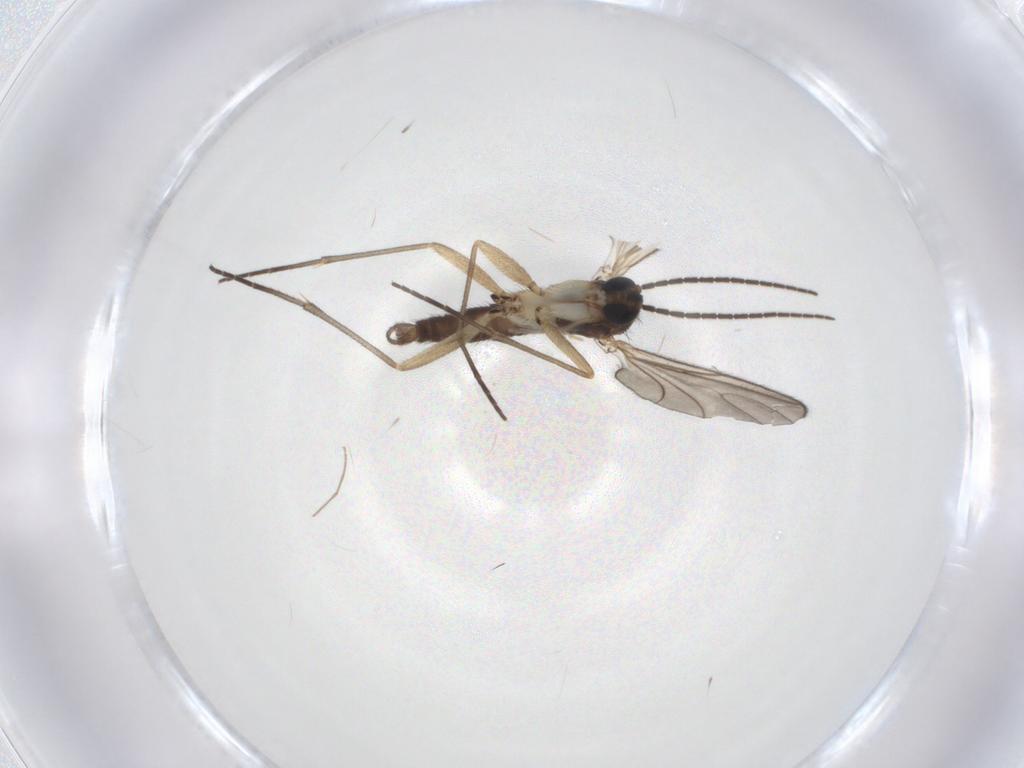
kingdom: Animalia
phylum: Arthropoda
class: Insecta
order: Diptera
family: Sciaridae
